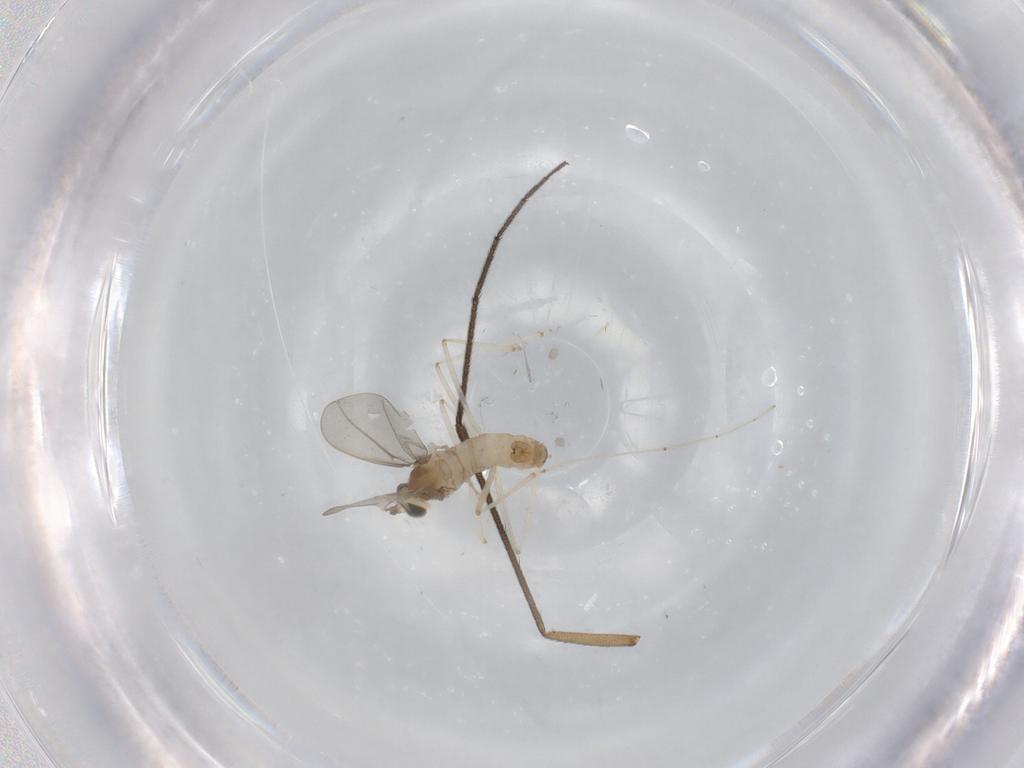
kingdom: Animalia
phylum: Arthropoda
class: Insecta
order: Diptera
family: Cecidomyiidae
